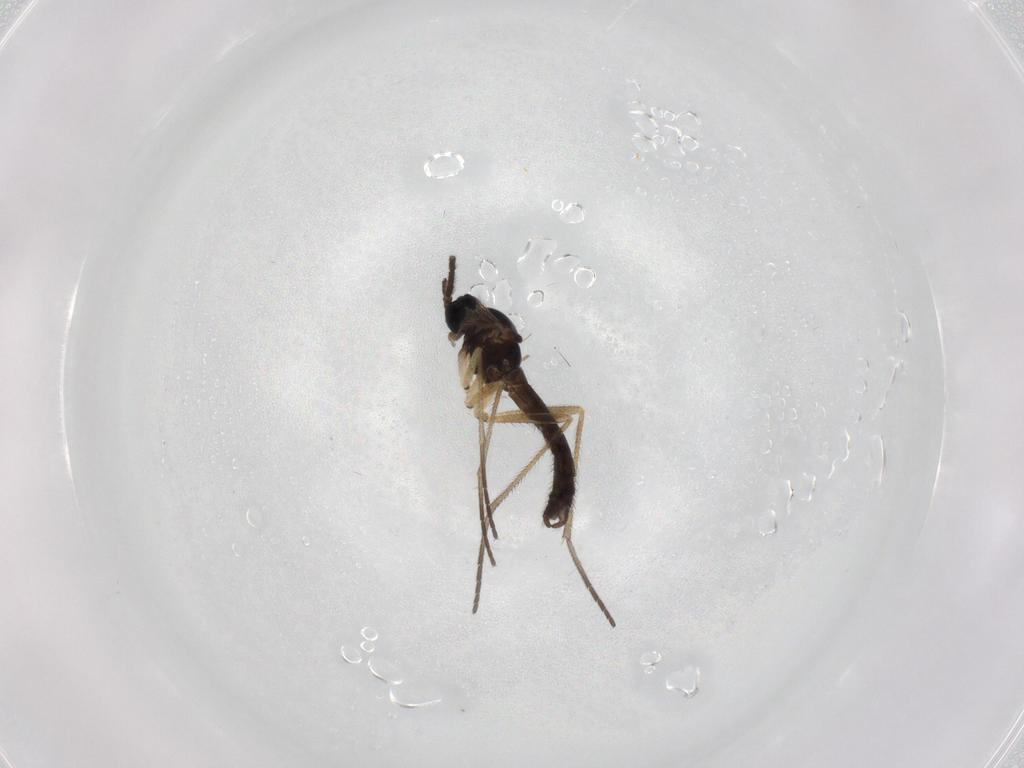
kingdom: Animalia
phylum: Arthropoda
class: Insecta
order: Diptera
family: Sciaridae
